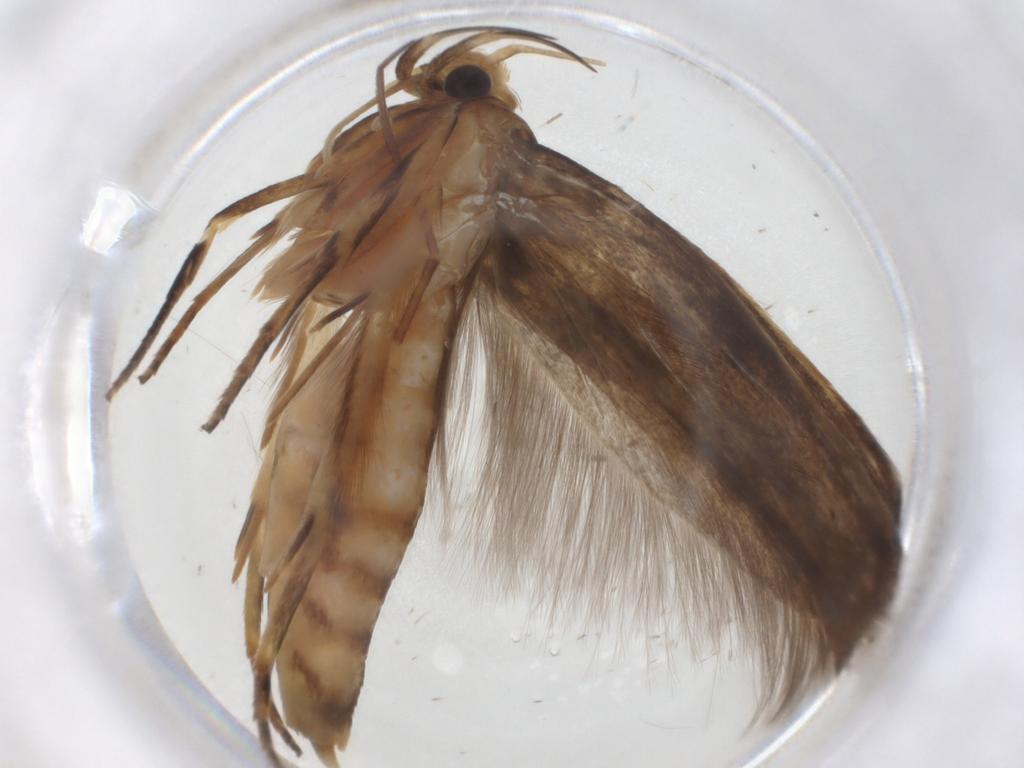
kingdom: Animalia
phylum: Arthropoda
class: Insecta
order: Lepidoptera
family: Gelechiidae
